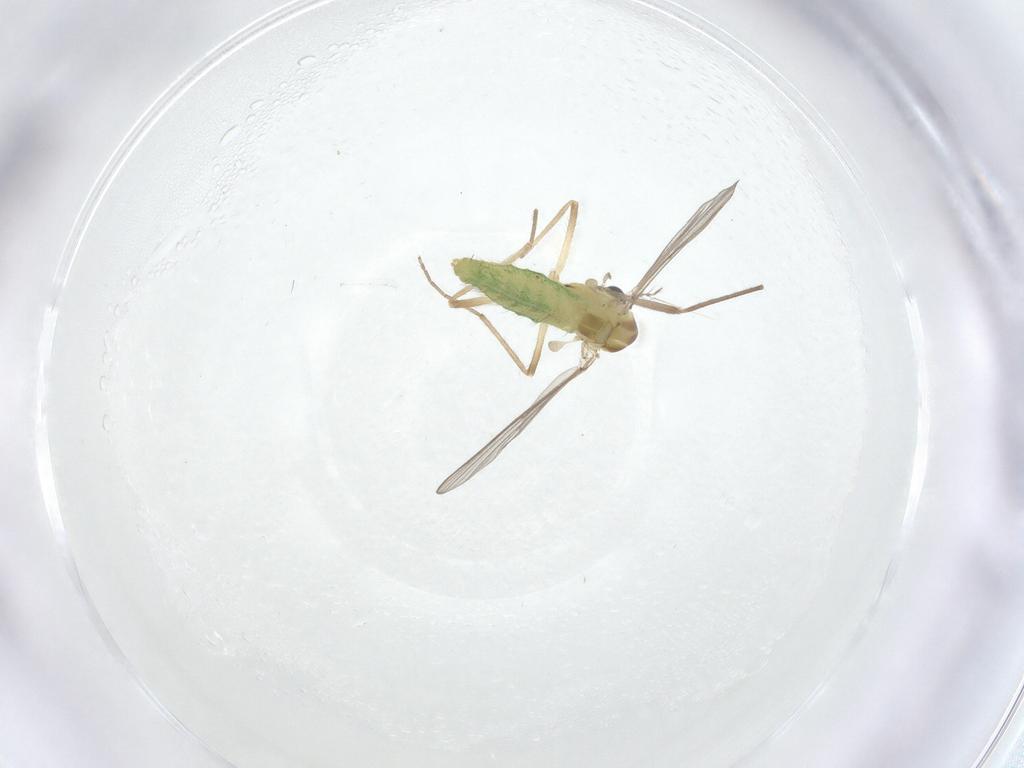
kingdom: Animalia
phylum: Arthropoda
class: Insecta
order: Diptera
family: Chironomidae
